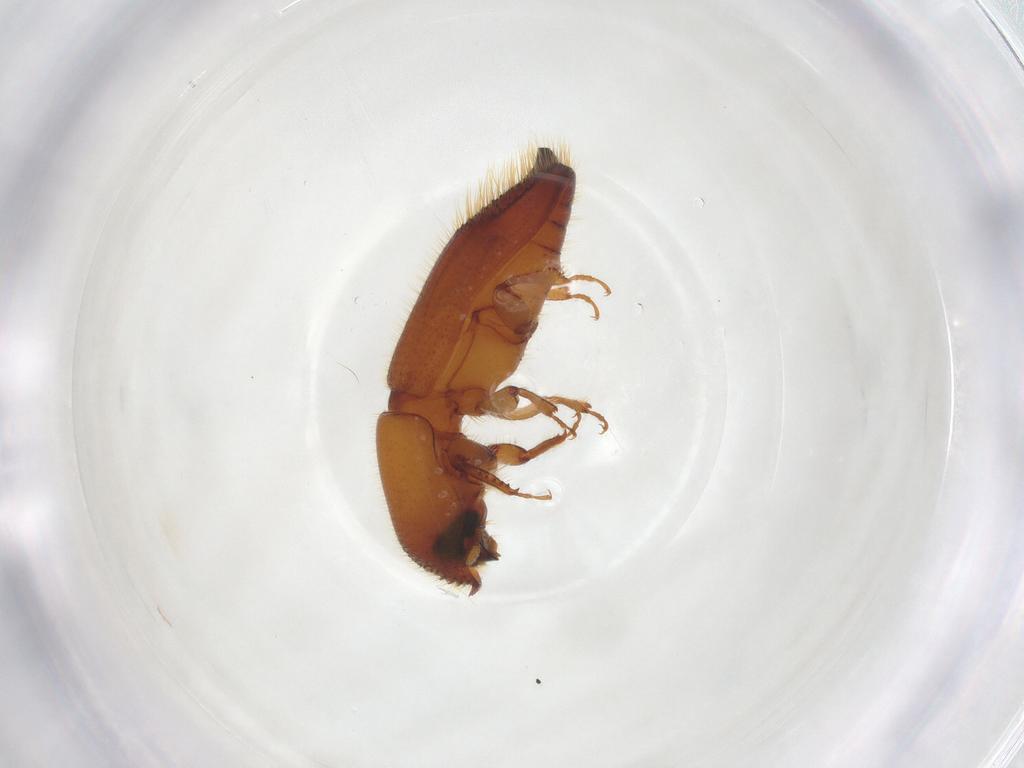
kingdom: Animalia
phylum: Arthropoda
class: Insecta
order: Coleoptera
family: Curculionidae
